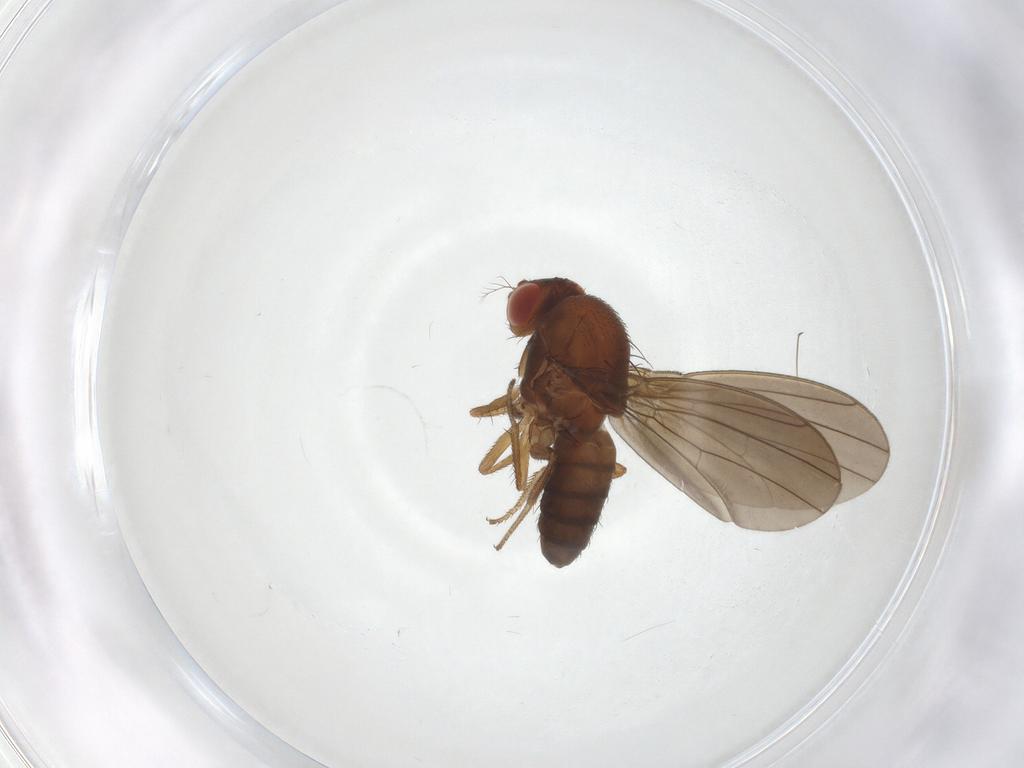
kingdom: Animalia
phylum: Arthropoda
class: Insecta
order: Diptera
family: Drosophilidae
